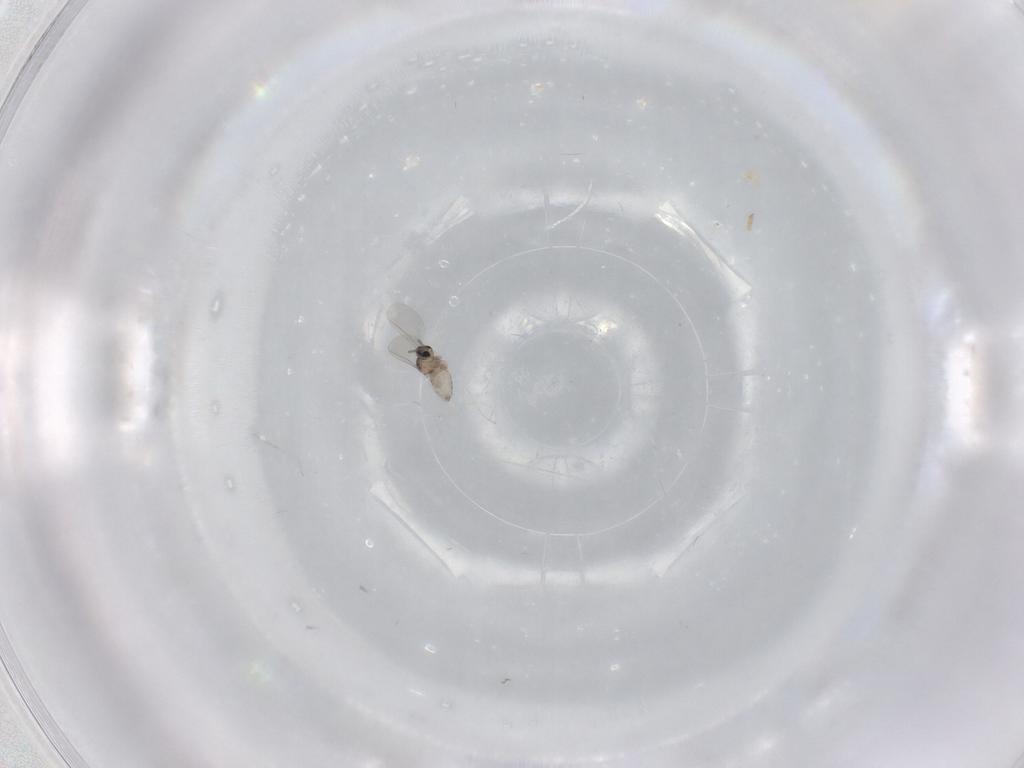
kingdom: Animalia
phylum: Arthropoda
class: Insecta
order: Diptera
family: Cecidomyiidae
